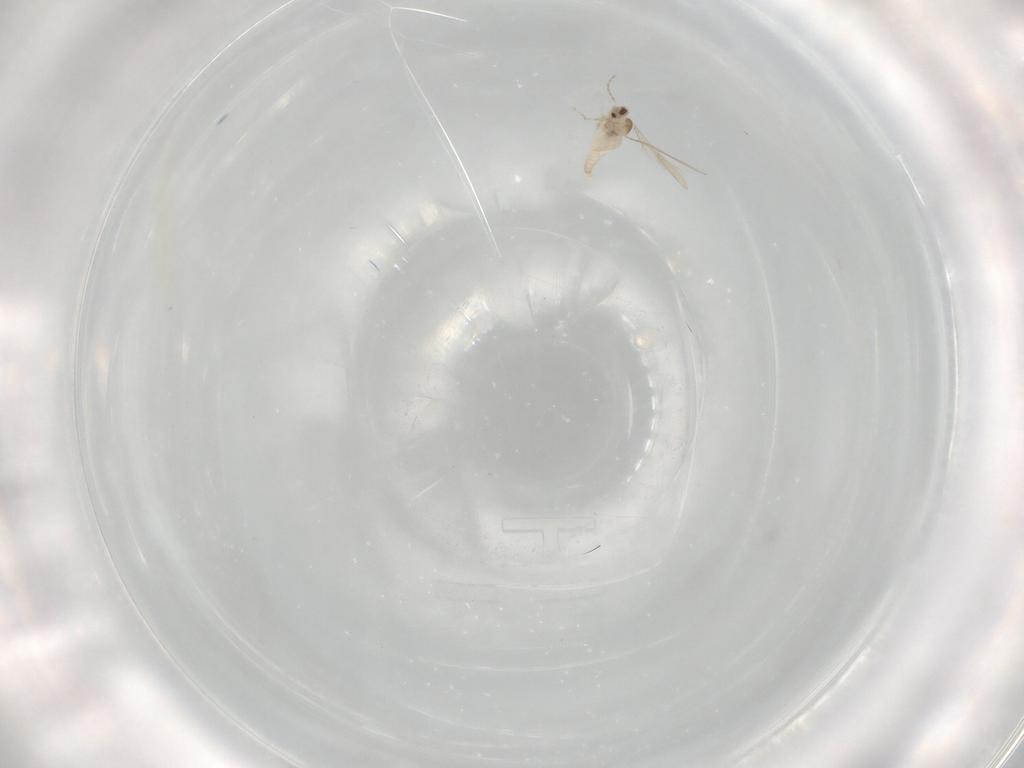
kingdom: Animalia
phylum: Arthropoda
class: Insecta
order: Diptera
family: Cecidomyiidae
